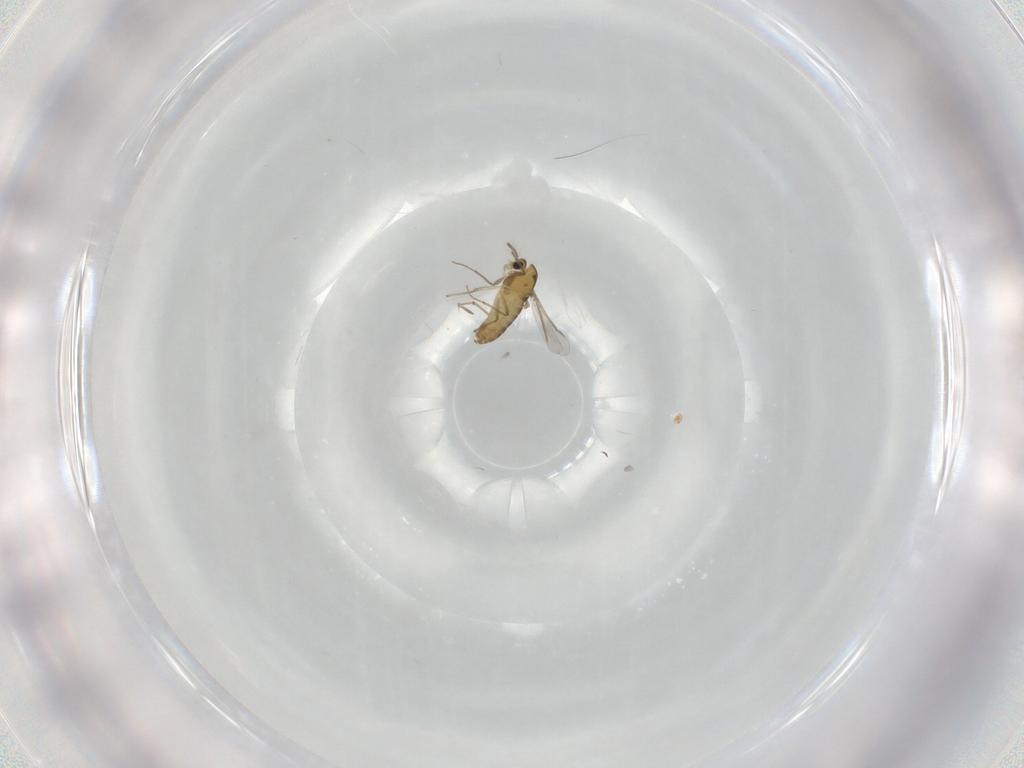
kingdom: Animalia
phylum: Arthropoda
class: Insecta
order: Diptera
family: Chironomidae
